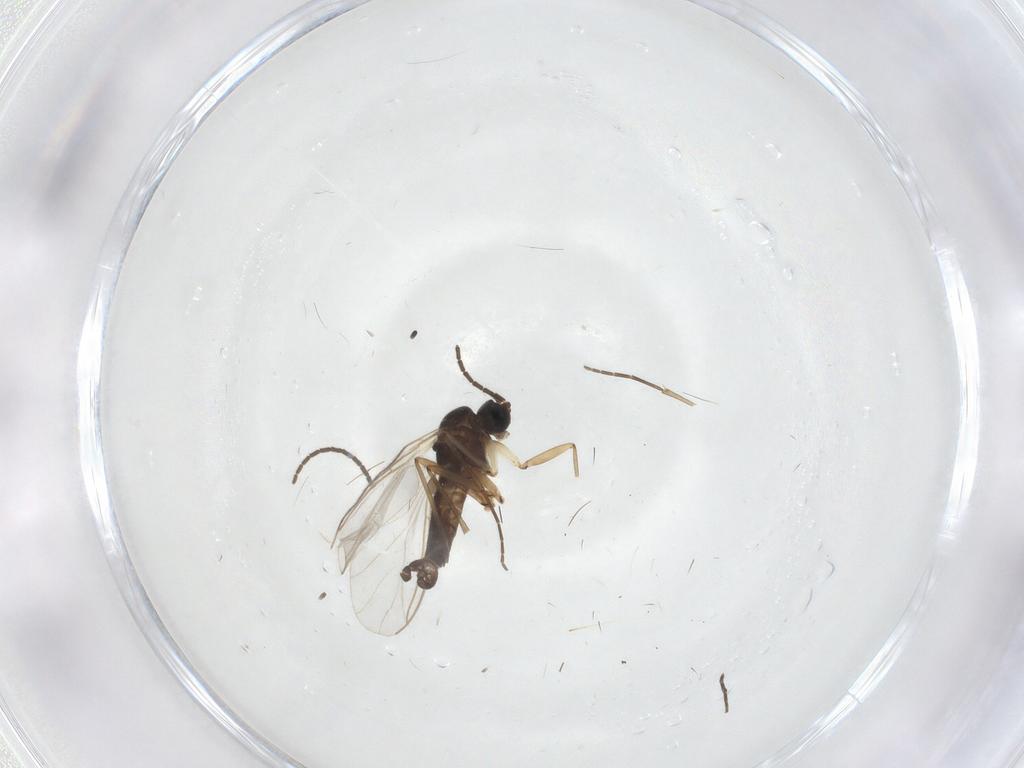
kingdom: Animalia
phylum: Arthropoda
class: Insecta
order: Diptera
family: Sciaridae
